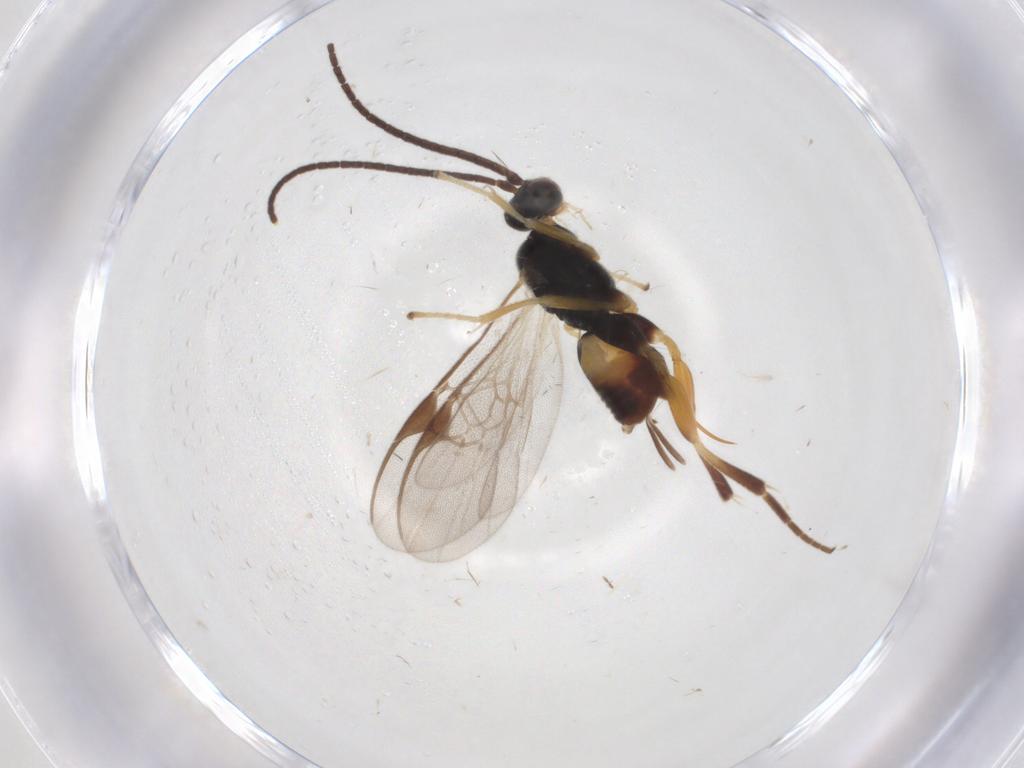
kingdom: Animalia
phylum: Arthropoda
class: Insecta
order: Hymenoptera
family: Braconidae
